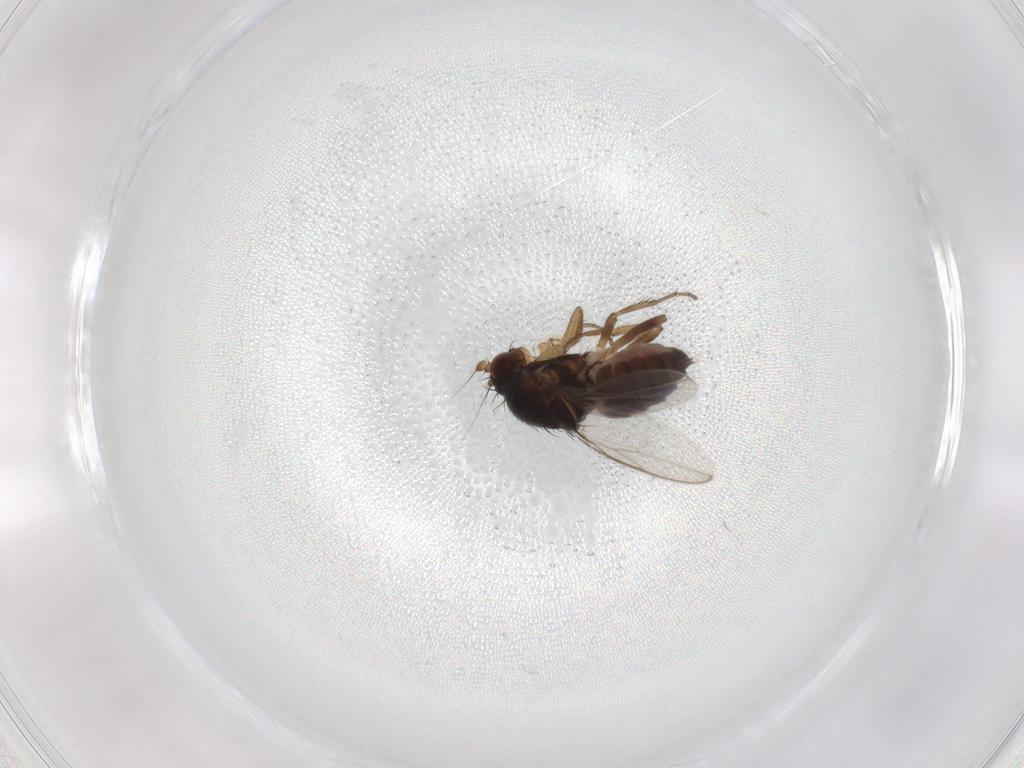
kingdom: Animalia
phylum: Arthropoda
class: Insecta
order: Diptera
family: Sphaeroceridae
